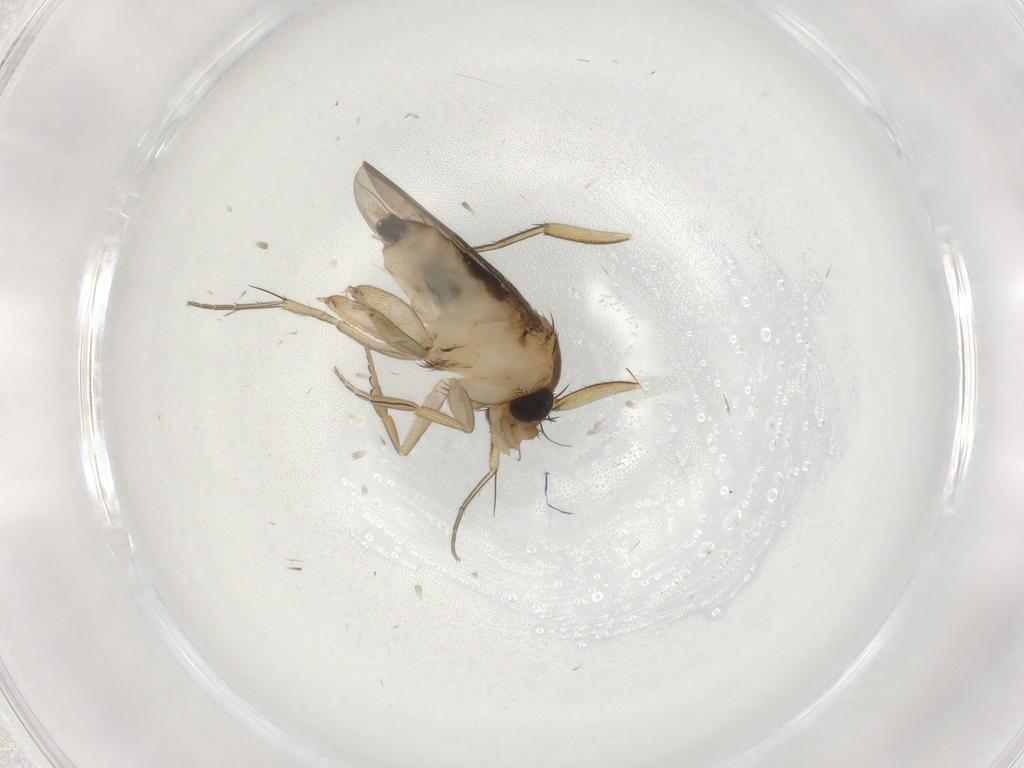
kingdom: Animalia
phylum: Arthropoda
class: Insecta
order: Diptera
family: Phoridae
